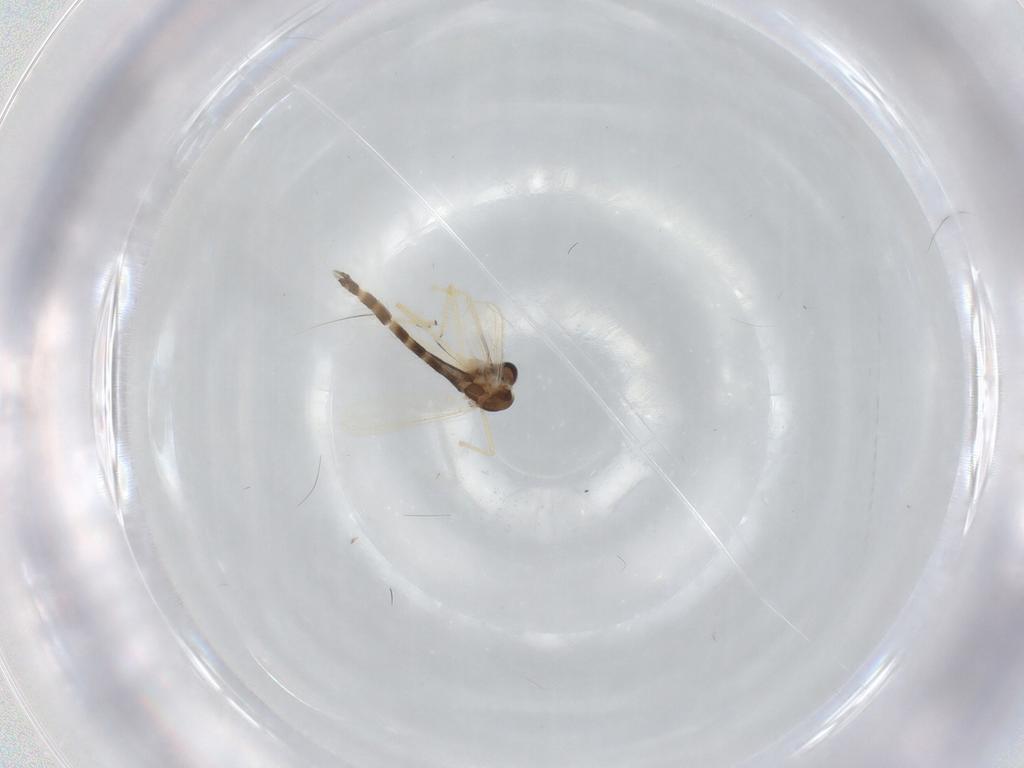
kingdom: Animalia
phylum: Arthropoda
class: Insecta
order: Diptera
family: Chironomidae
